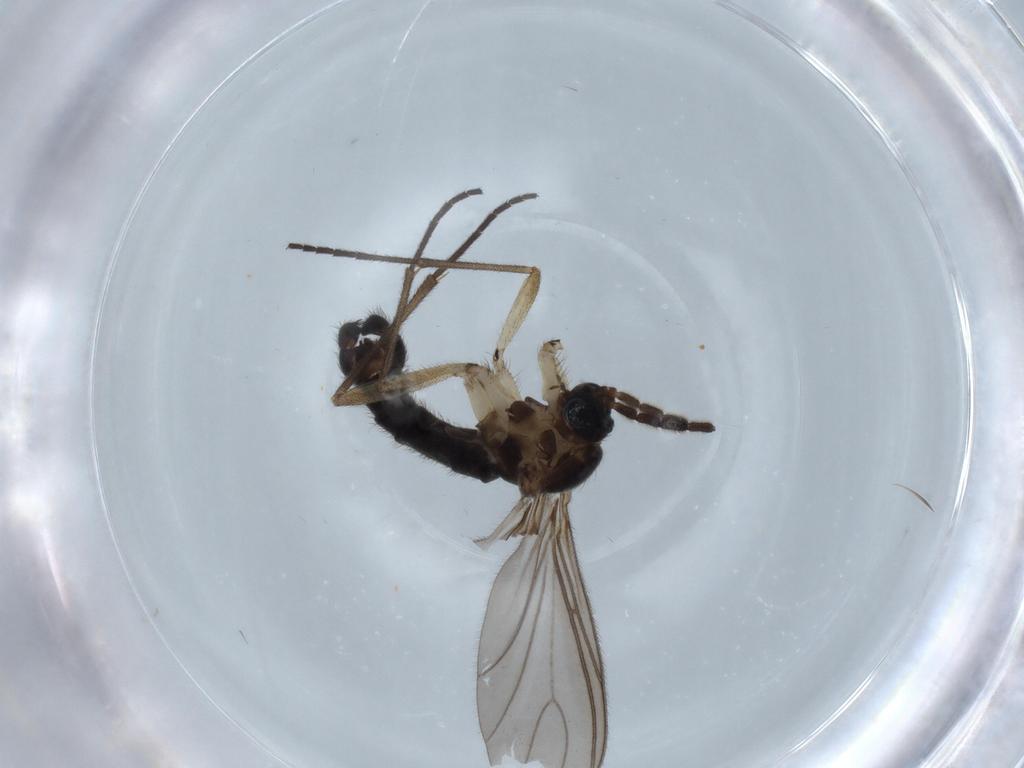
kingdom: Animalia
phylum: Arthropoda
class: Insecta
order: Diptera
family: Sciaridae
